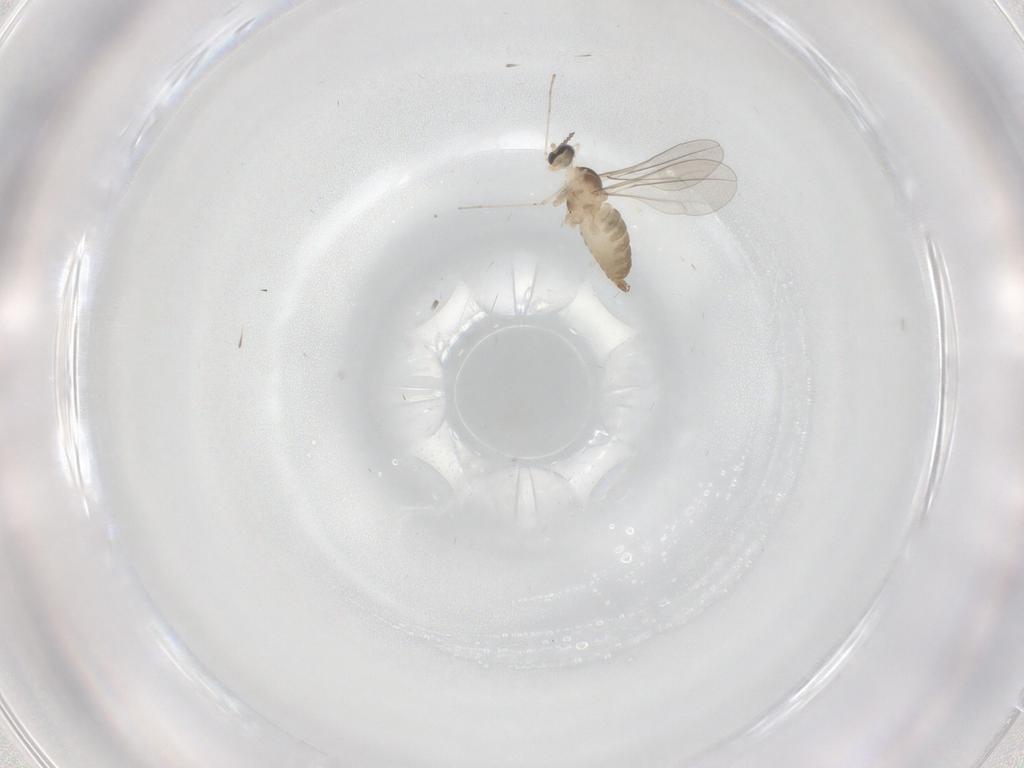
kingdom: Animalia
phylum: Arthropoda
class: Insecta
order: Diptera
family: Cecidomyiidae
